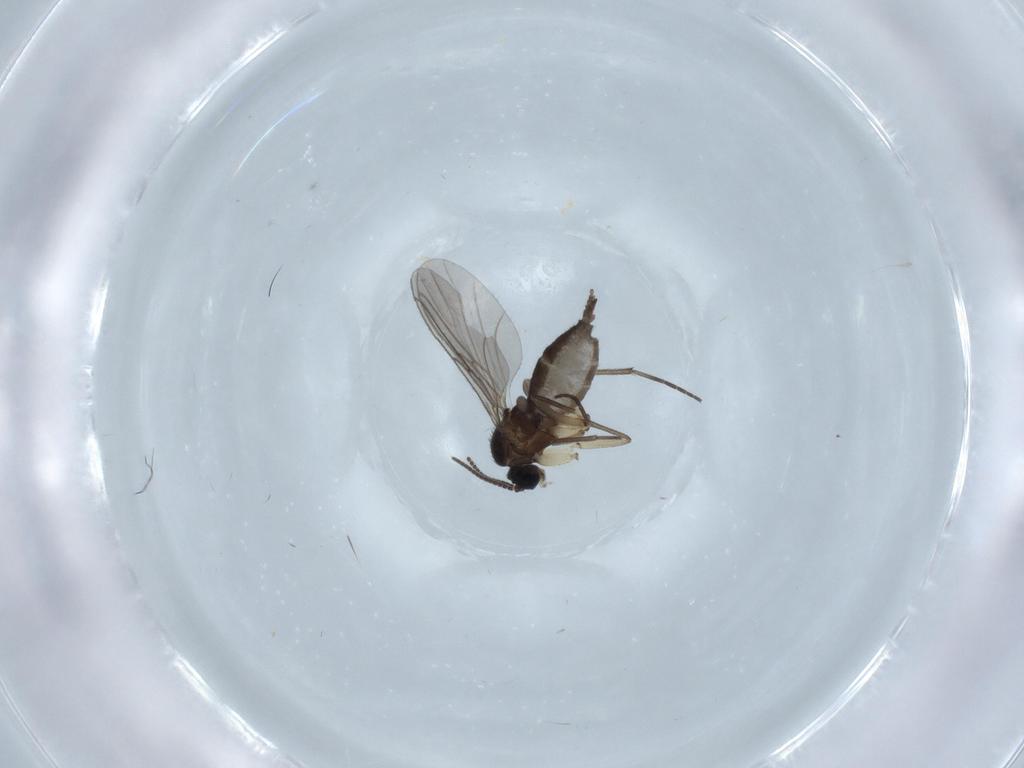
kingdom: Animalia
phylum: Arthropoda
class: Insecta
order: Diptera
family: Sciaridae
